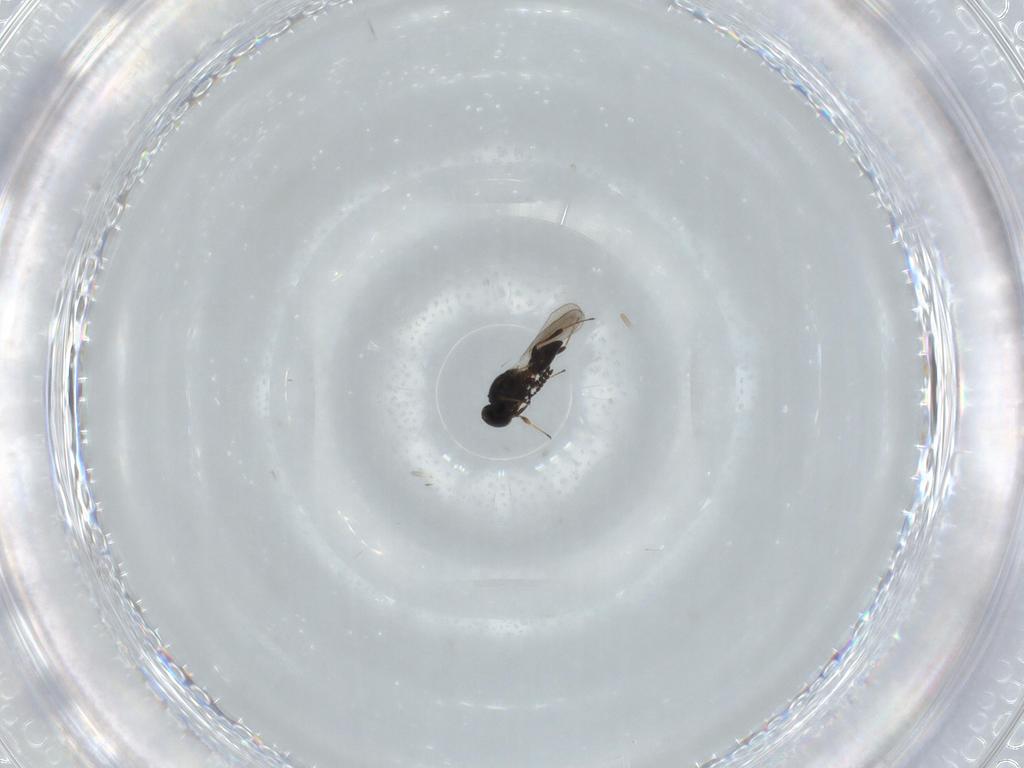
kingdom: Animalia
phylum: Arthropoda
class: Insecta
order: Hymenoptera
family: Platygastridae
